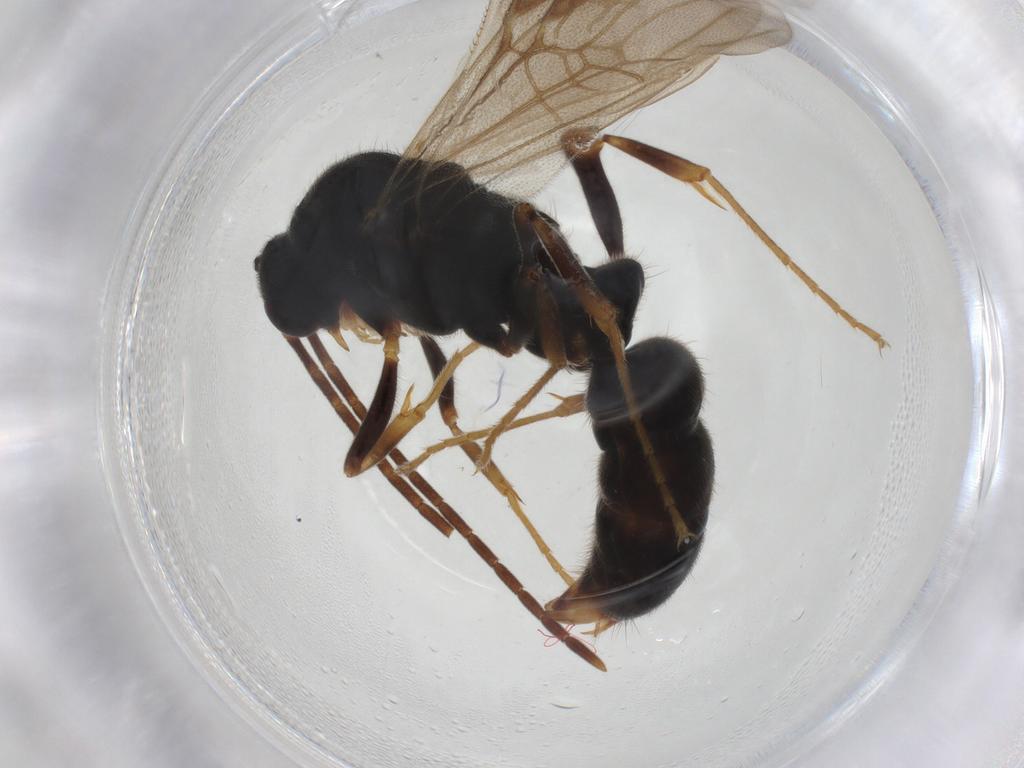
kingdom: Animalia
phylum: Arthropoda
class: Insecta
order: Hymenoptera
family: Formicidae
